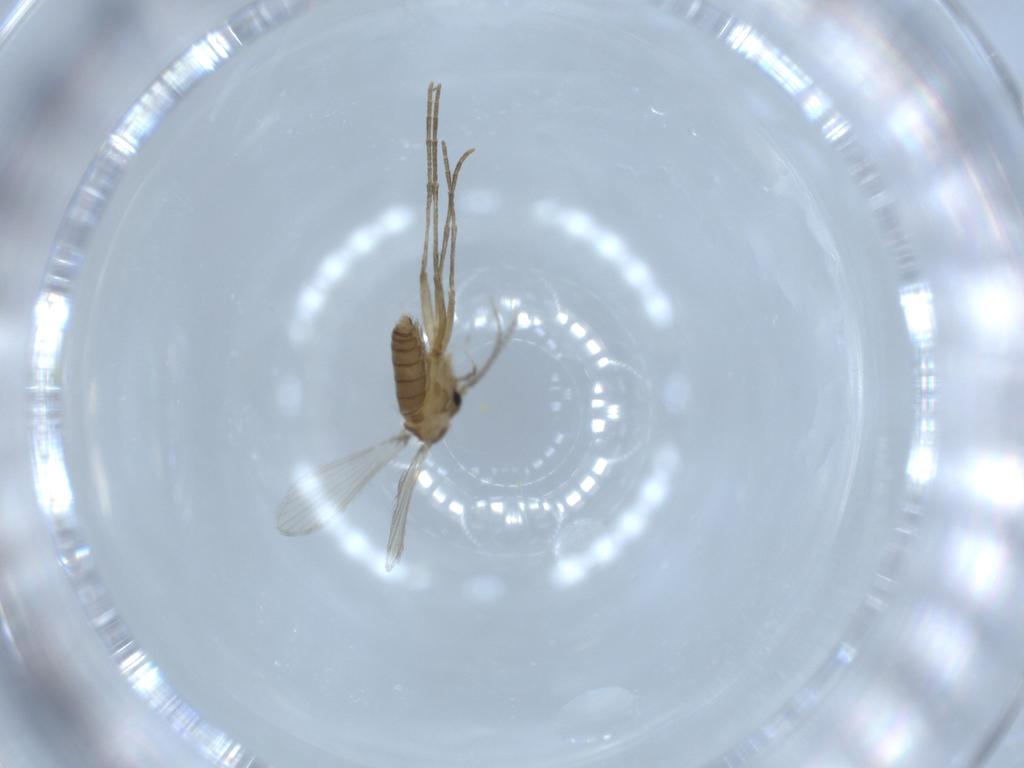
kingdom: Animalia
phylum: Arthropoda
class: Insecta
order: Diptera
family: Psychodidae
